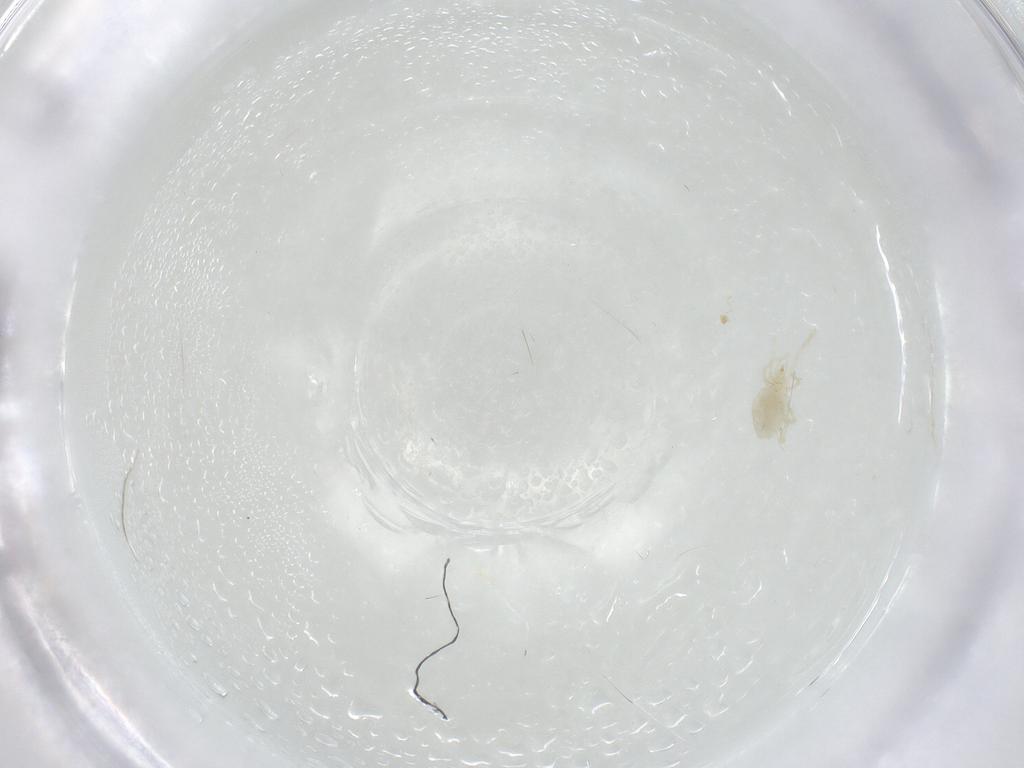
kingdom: Animalia
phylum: Arthropoda
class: Arachnida
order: Trombidiformes
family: Erythraeidae
